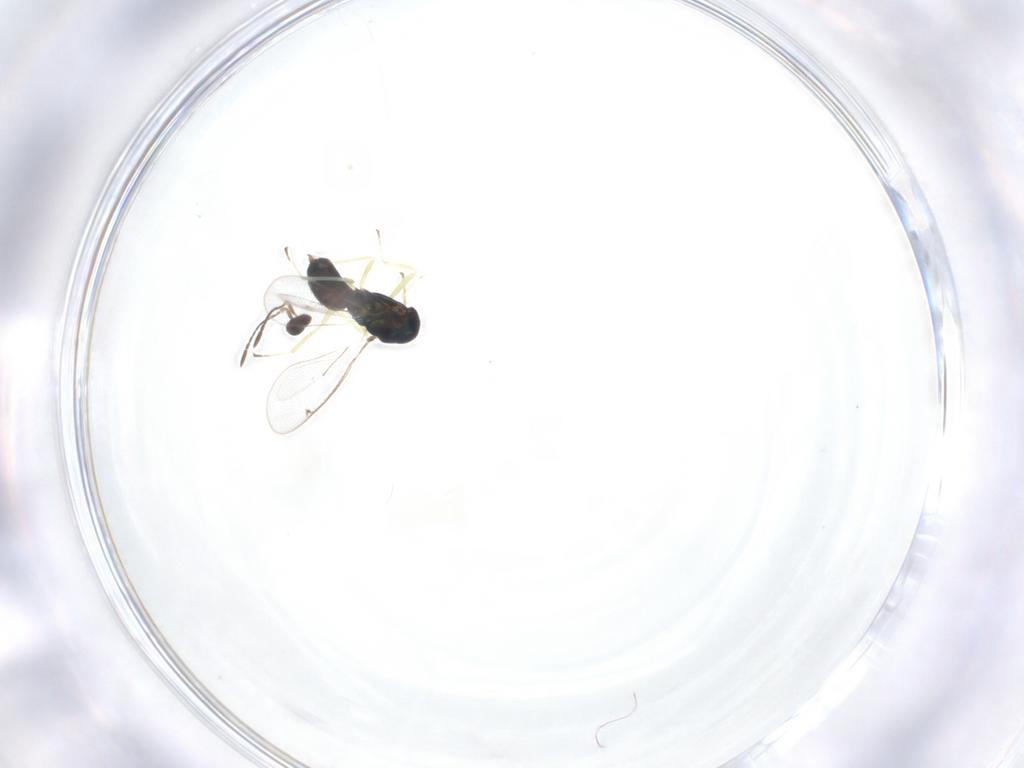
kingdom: Animalia
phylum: Arthropoda
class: Insecta
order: Hymenoptera
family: Eulophidae
